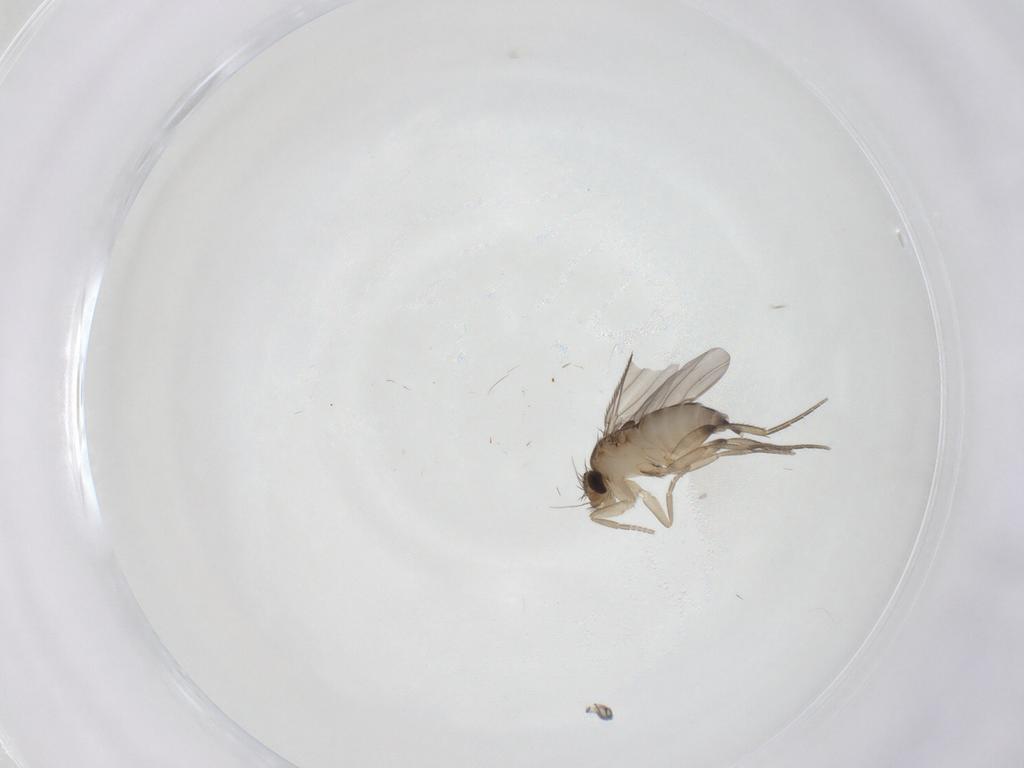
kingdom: Animalia
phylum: Arthropoda
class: Insecta
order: Diptera
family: Phoridae
